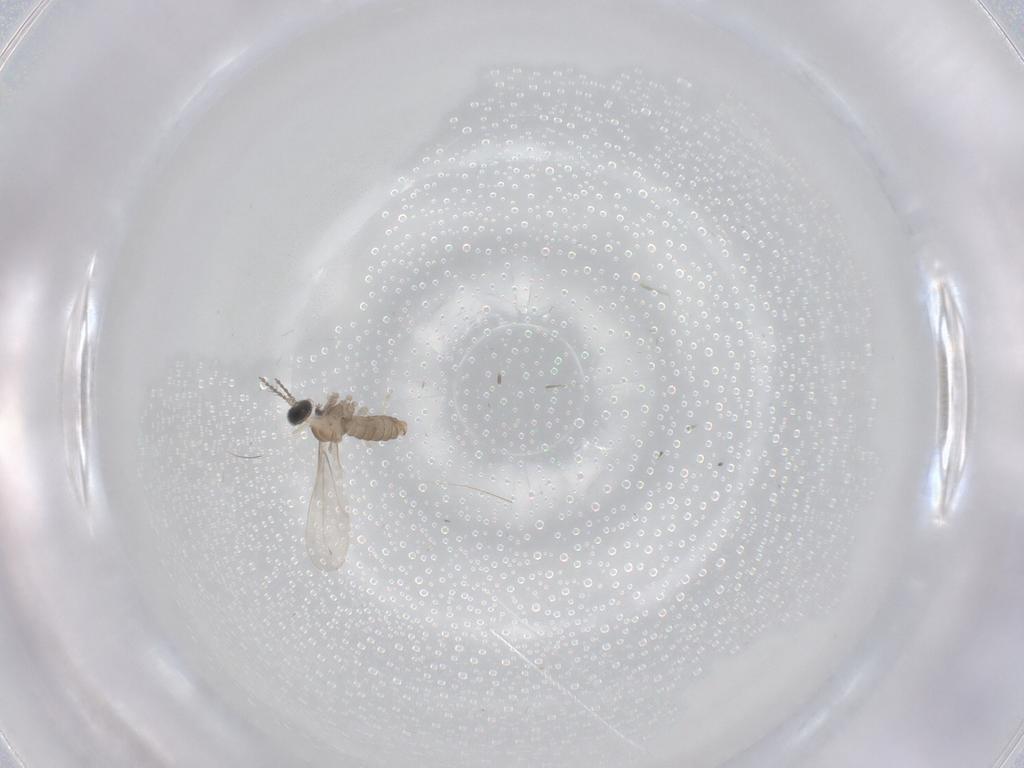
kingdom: Animalia
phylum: Arthropoda
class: Insecta
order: Diptera
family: Cecidomyiidae
